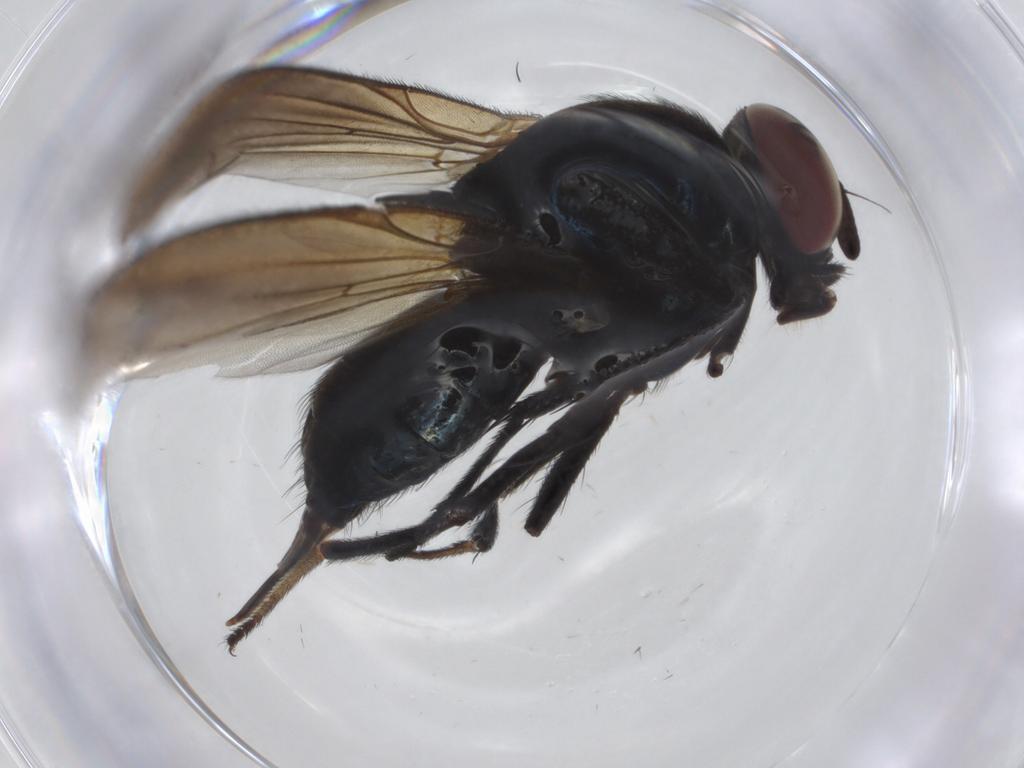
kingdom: Animalia
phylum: Arthropoda
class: Insecta
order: Diptera
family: Lonchaeidae
